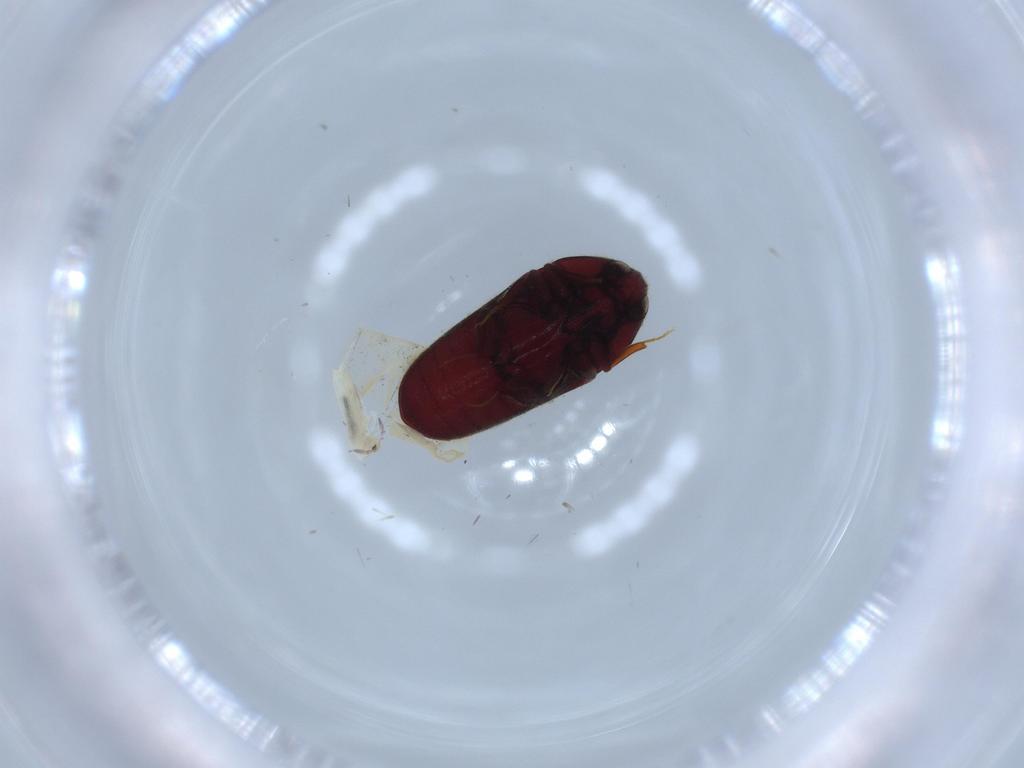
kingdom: Animalia
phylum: Arthropoda
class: Insecta
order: Coleoptera
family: Throscidae
